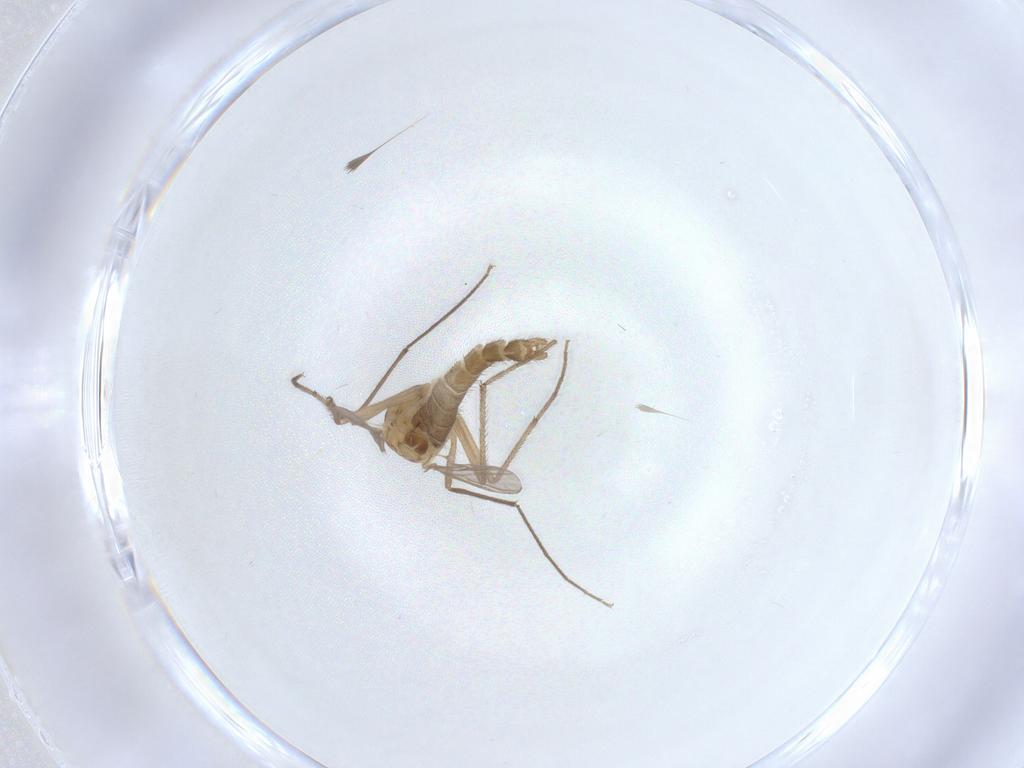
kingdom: Animalia
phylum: Arthropoda
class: Insecta
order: Diptera
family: Chironomidae
